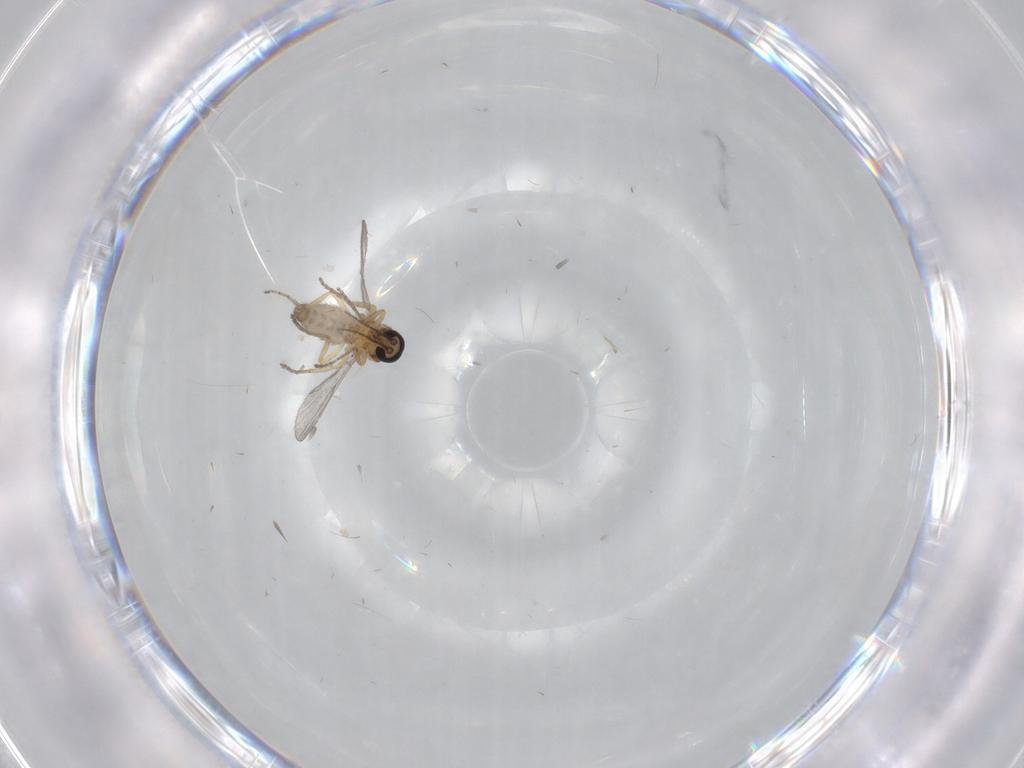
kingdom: Animalia
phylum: Arthropoda
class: Insecta
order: Diptera
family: Ceratopogonidae
